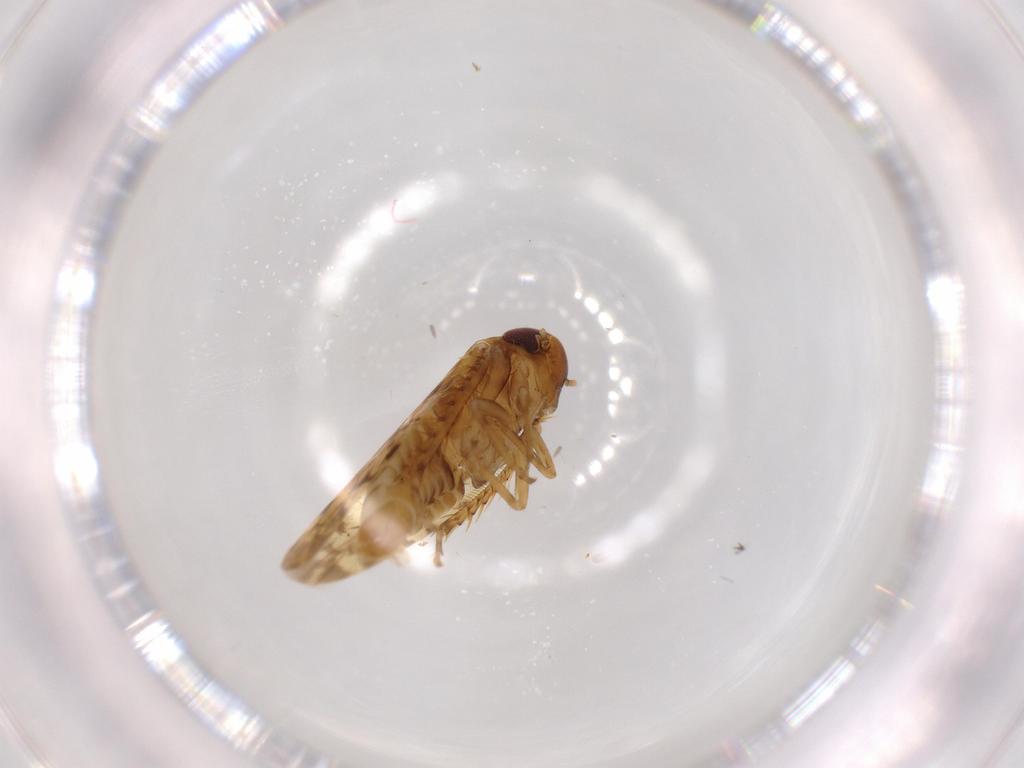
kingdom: Animalia
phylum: Arthropoda
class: Insecta
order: Hemiptera
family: Cicadellidae
